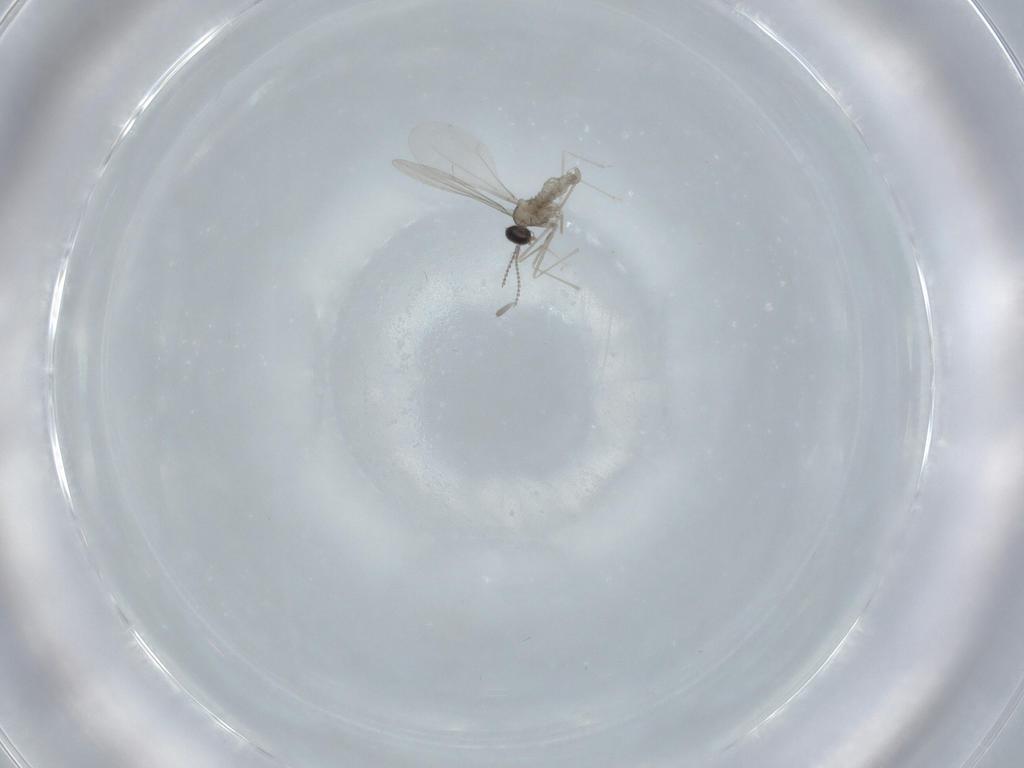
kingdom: Animalia
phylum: Arthropoda
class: Insecta
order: Diptera
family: Cecidomyiidae
